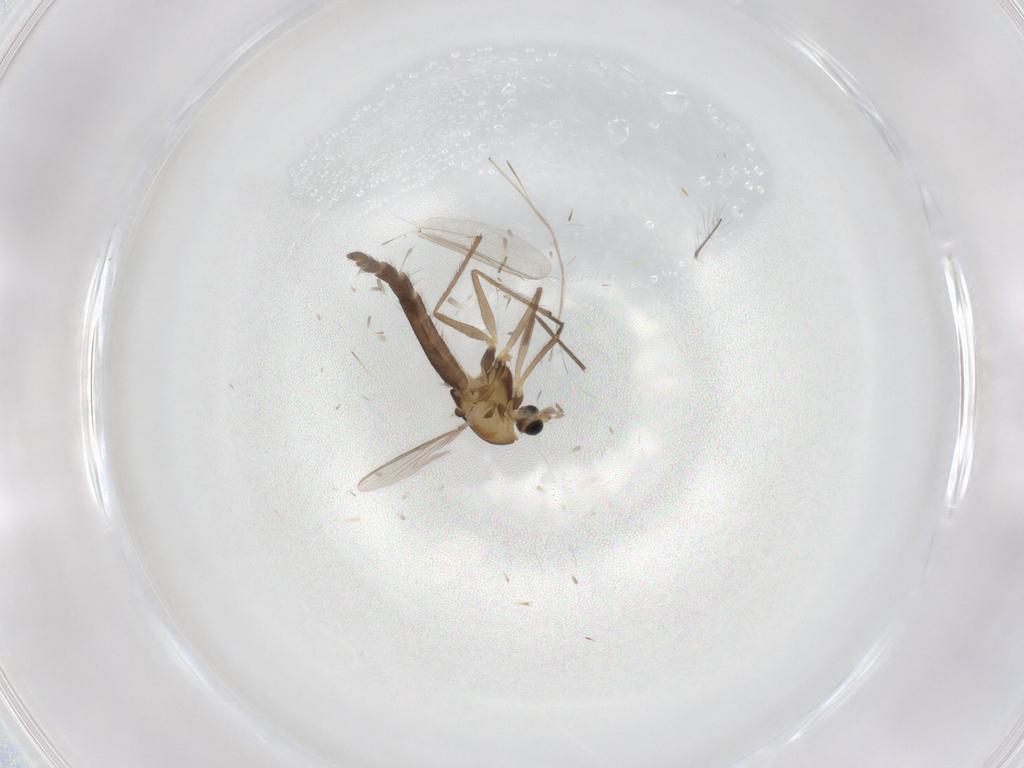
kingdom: Animalia
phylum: Arthropoda
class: Insecta
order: Diptera
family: Chironomidae
